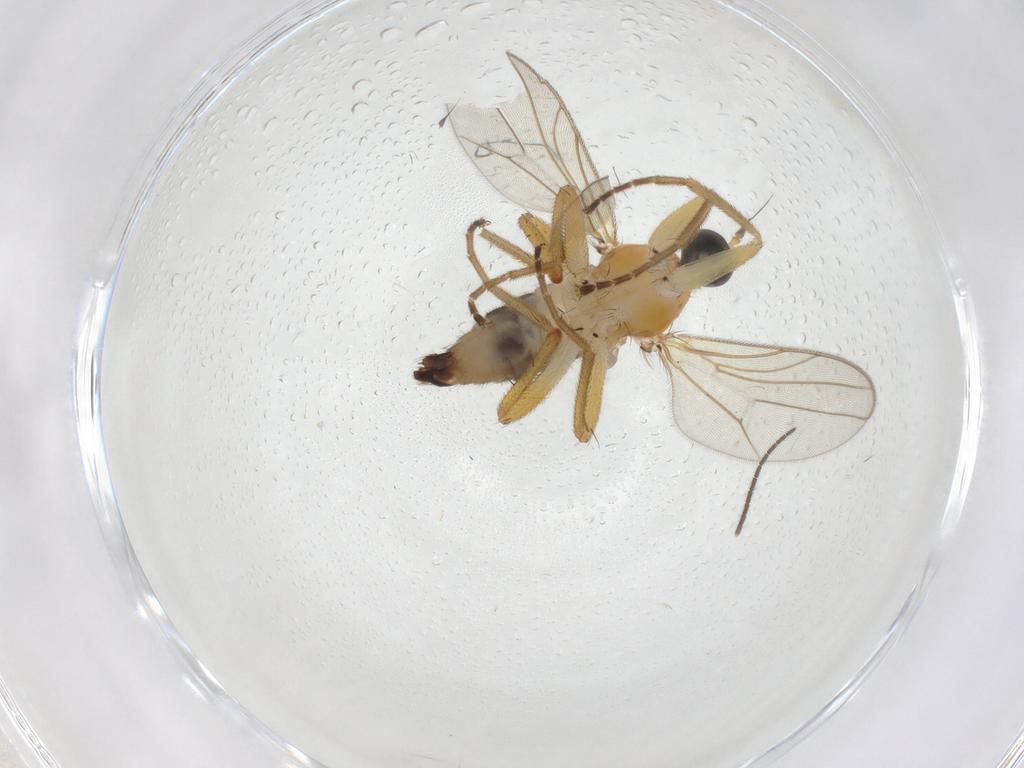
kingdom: Animalia
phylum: Arthropoda
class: Insecta
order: Diptera
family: Hybotidae
